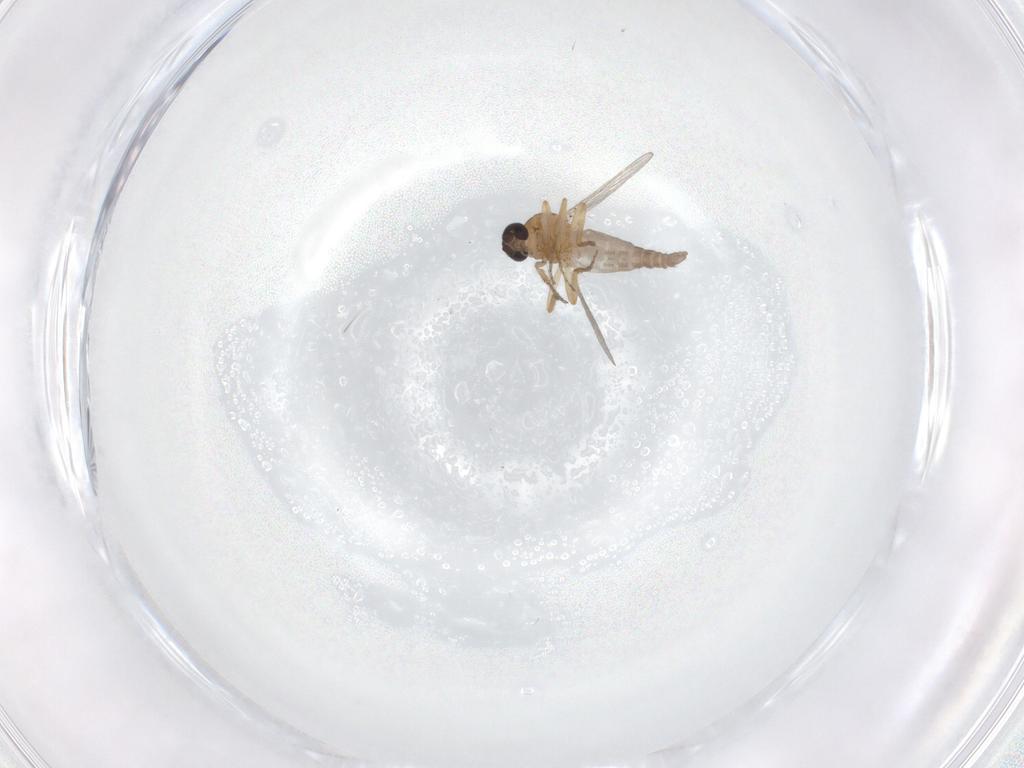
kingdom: Animalia
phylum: Arthropoda
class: Insecta
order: Diptera
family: Ceratopogonidae
